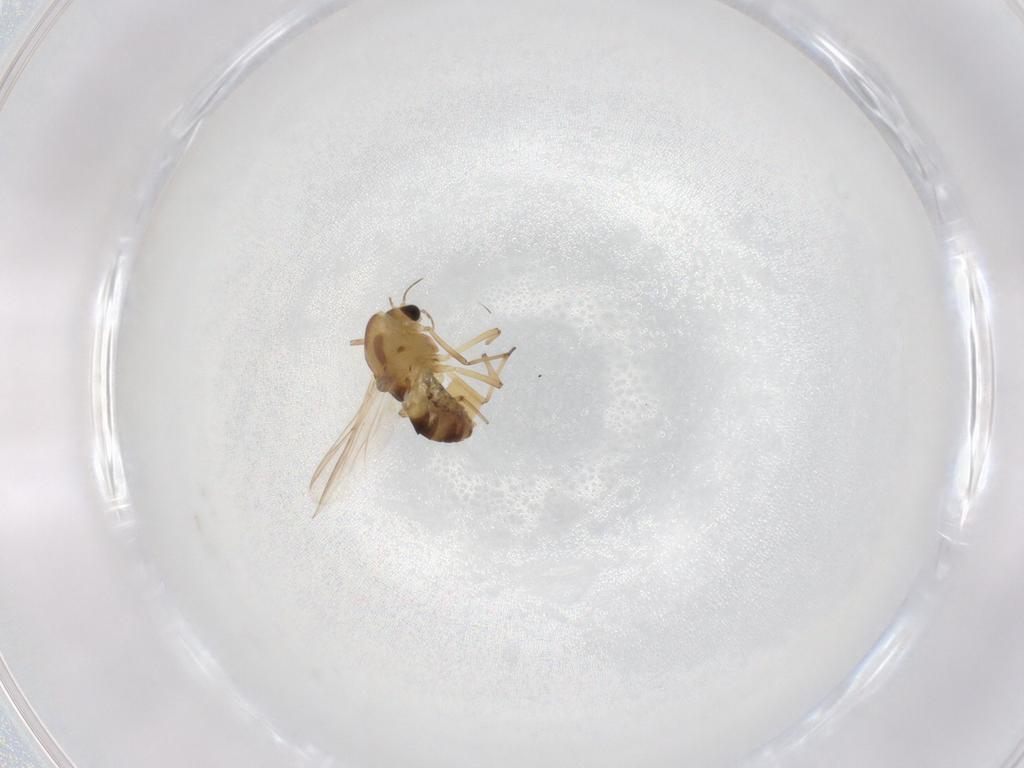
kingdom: Animalia
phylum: Arthropoda
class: Insecta
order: Diptera
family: Chironomidae
